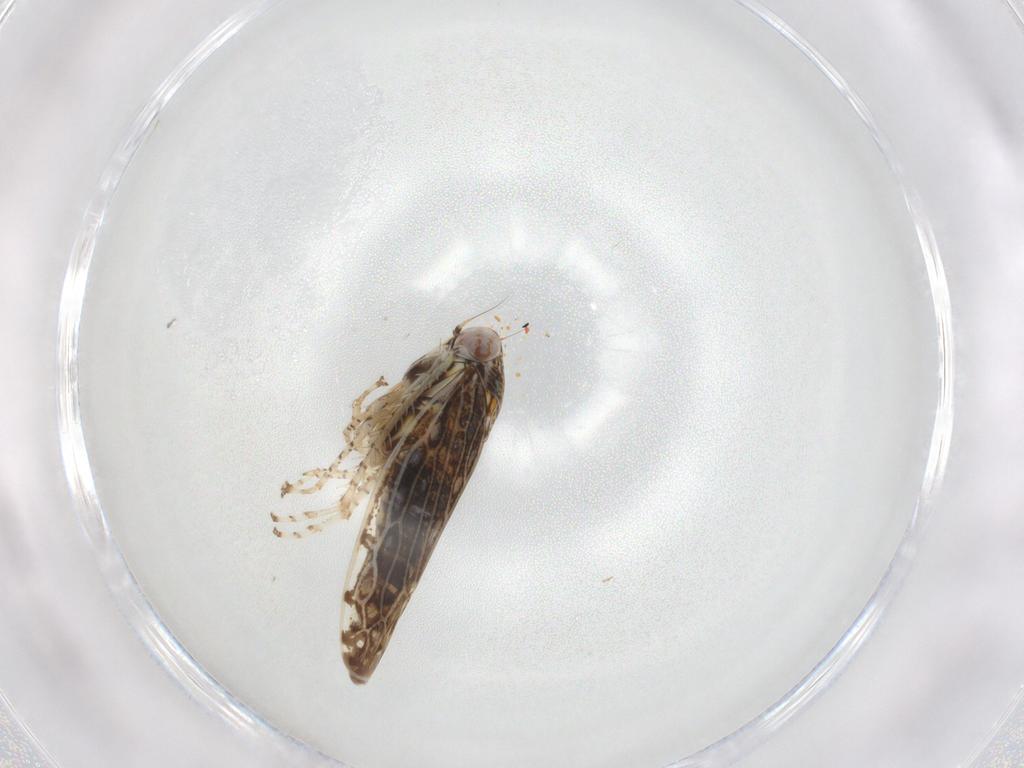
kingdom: Animalia
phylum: Arthropoda
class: Insecta
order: Hemiptera
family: Cicadellidae
